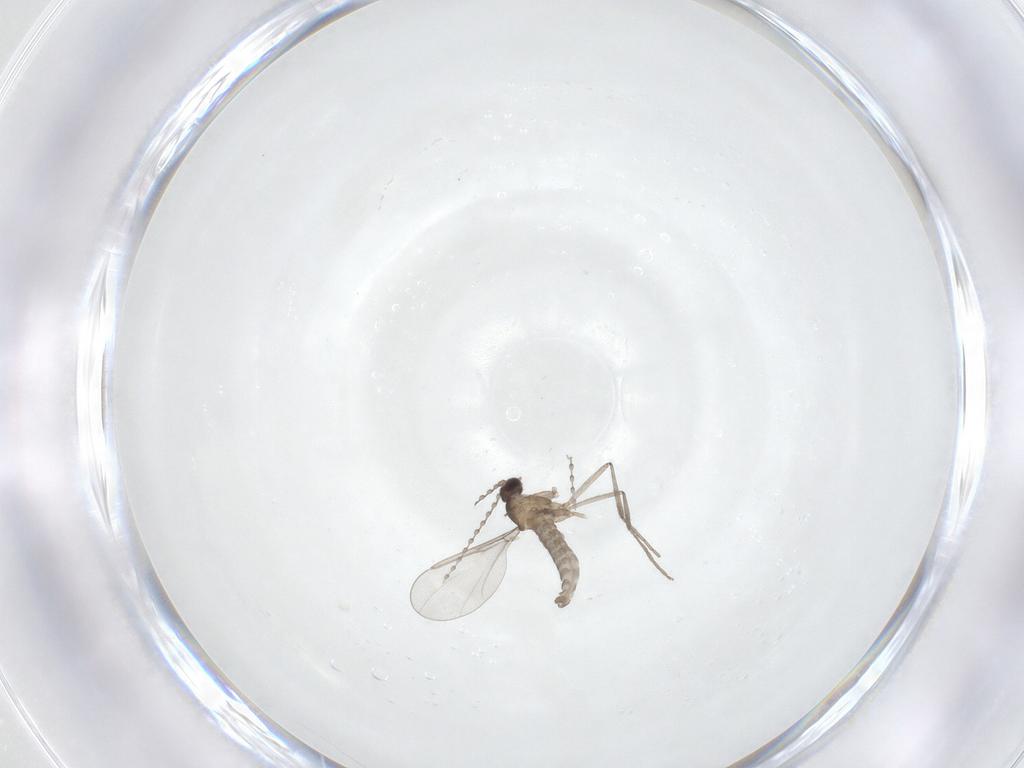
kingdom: Animalia
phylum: Arthropoda
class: Insecta
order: Diptera
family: Cecidomyiidae
